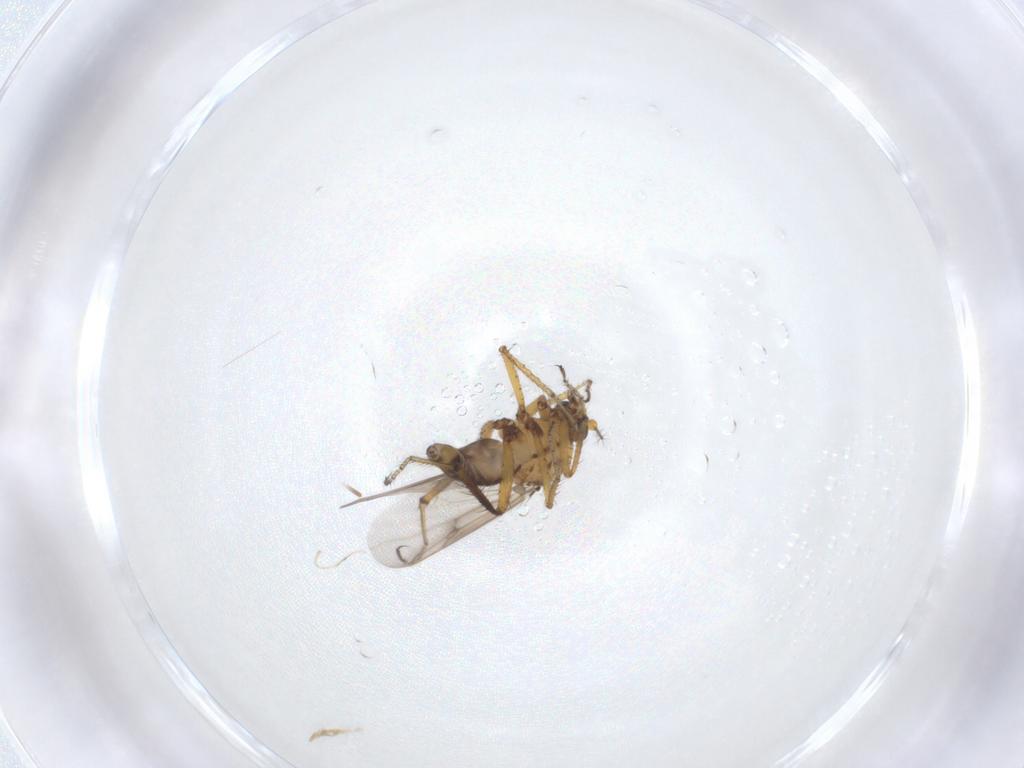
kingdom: Animalia
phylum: Arthropoda
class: Insecta
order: Diptera
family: Ceratopogonidae
